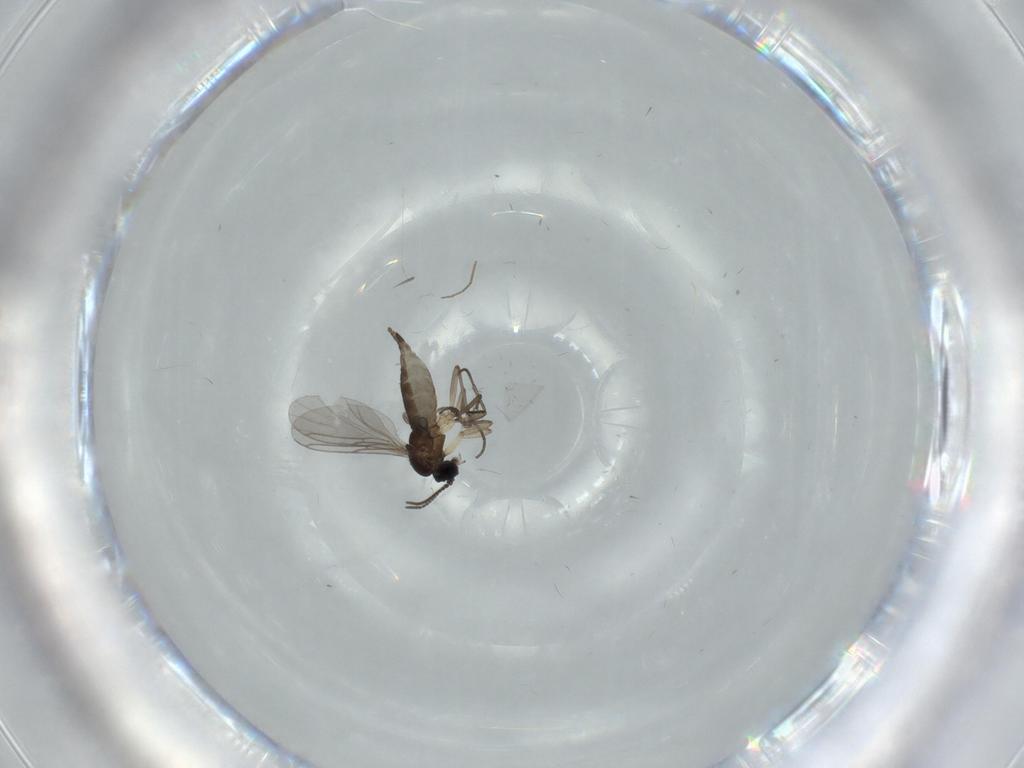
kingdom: Animalia
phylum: Arthropoda
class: Insecta
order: Diptera
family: Sciaridae
